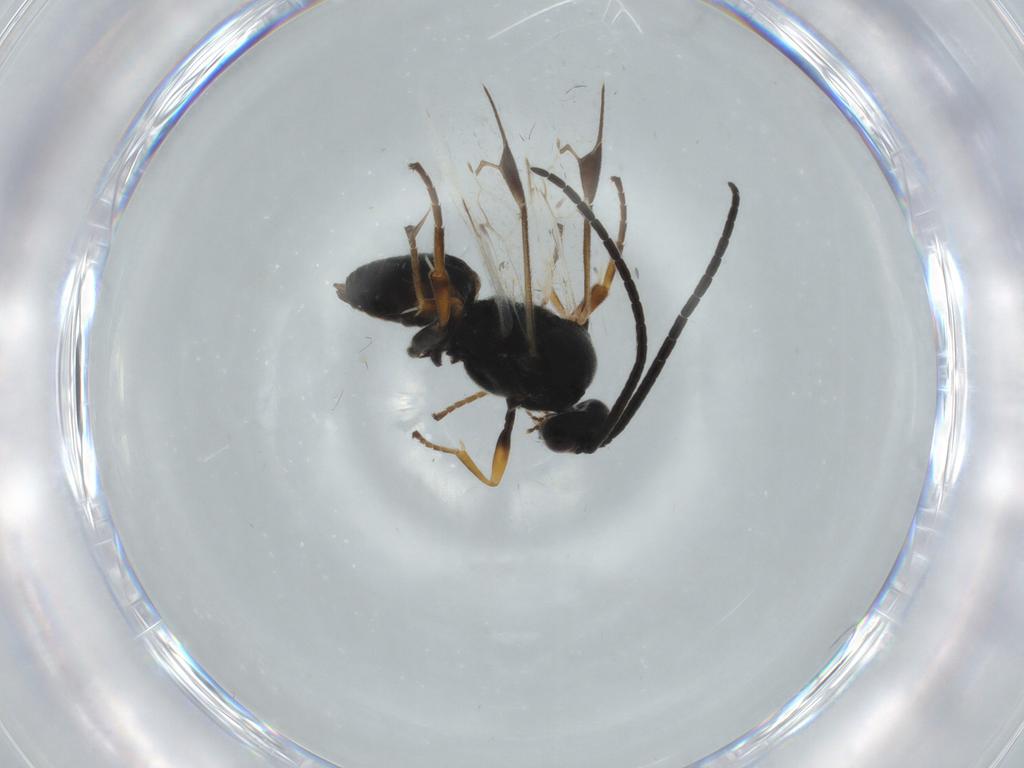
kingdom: Animalia
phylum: Arthropoda
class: Insecta
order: Hymenoptera
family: Braconidae
